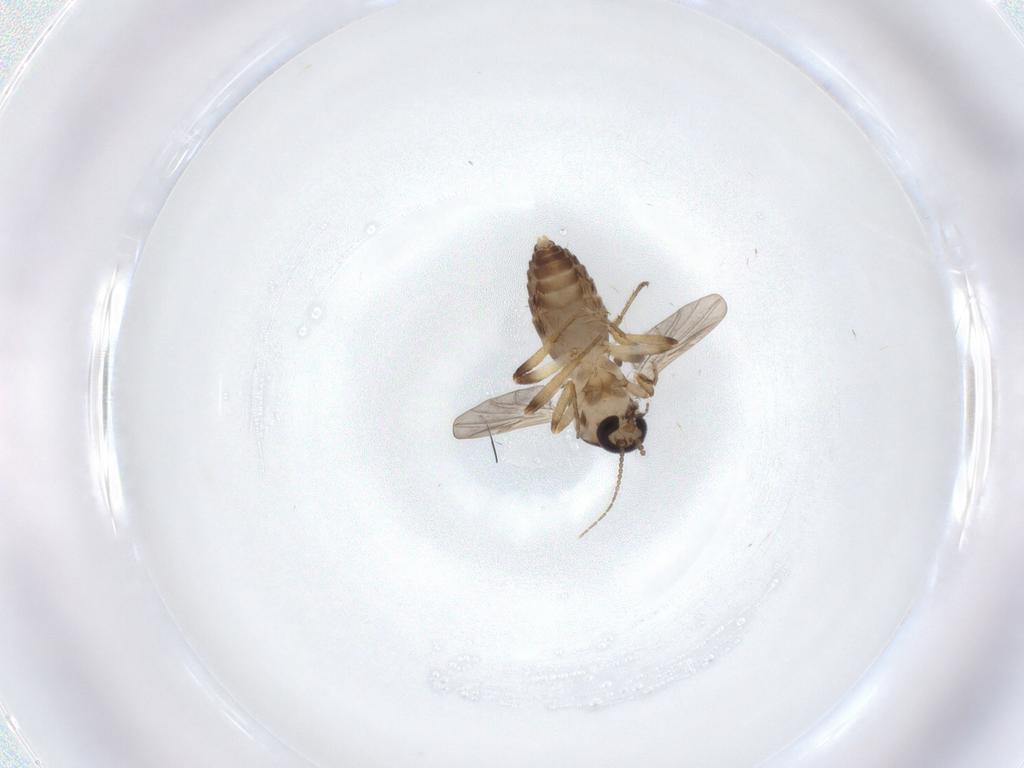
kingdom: Animalia
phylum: Arthropoda
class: Insecta
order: Diptera
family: Ceratopogonidae
